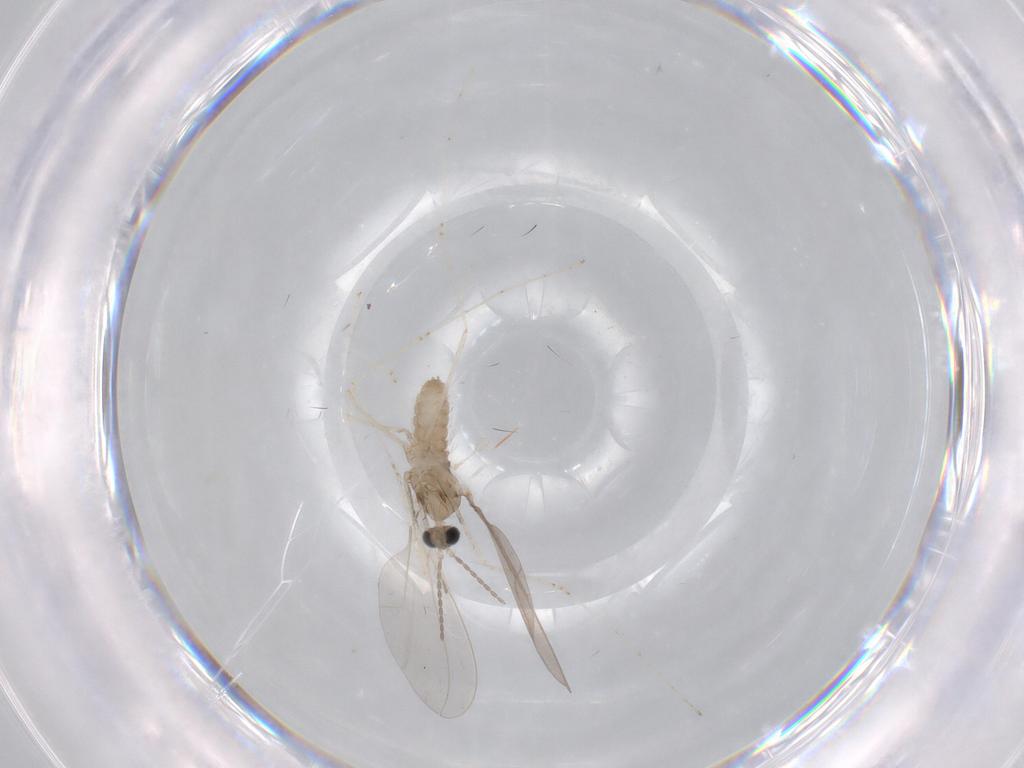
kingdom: Animalia
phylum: Arthropoda
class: Insecta
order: Diptera
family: Cecidomyiidae
